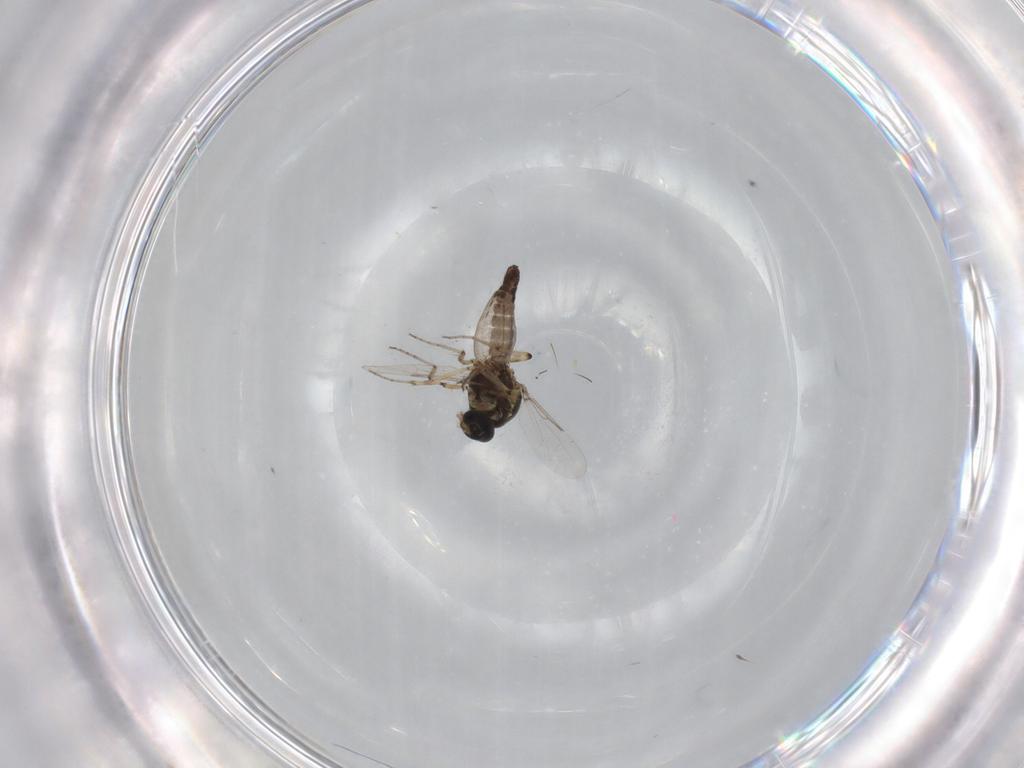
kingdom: Animalia
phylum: Arthropoda
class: Insecta
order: Diptera
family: Ceratopogonidae
